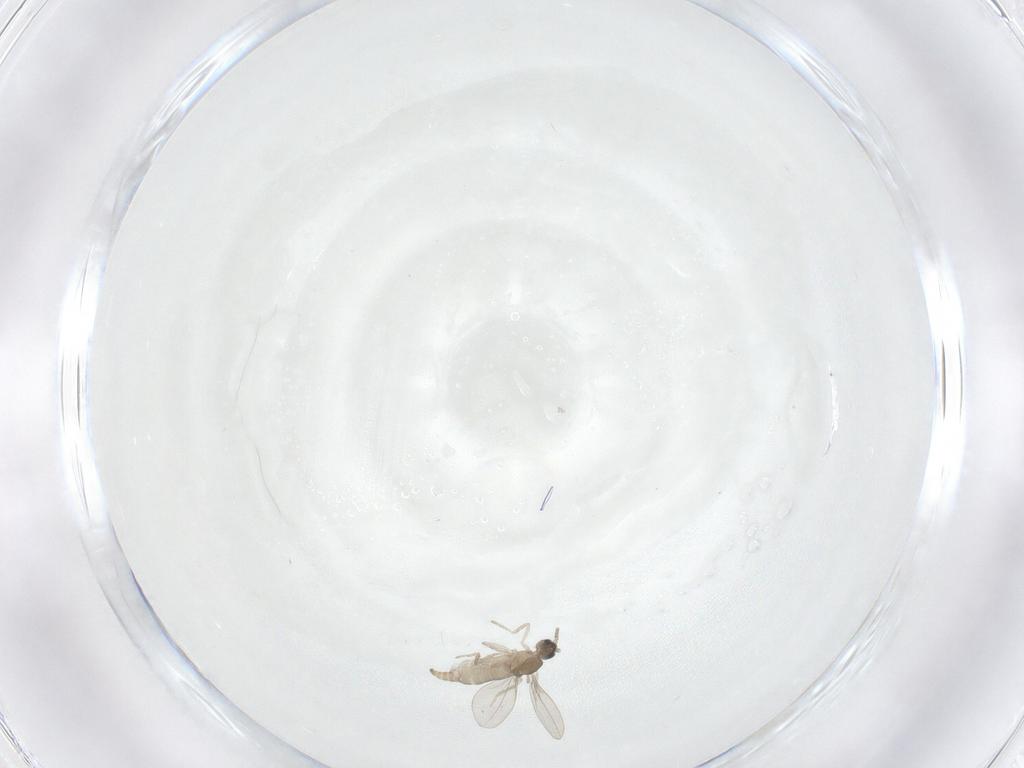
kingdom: Animalia
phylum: Arthropoda
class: Insecta
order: Diptera
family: Cecidomyiidae
